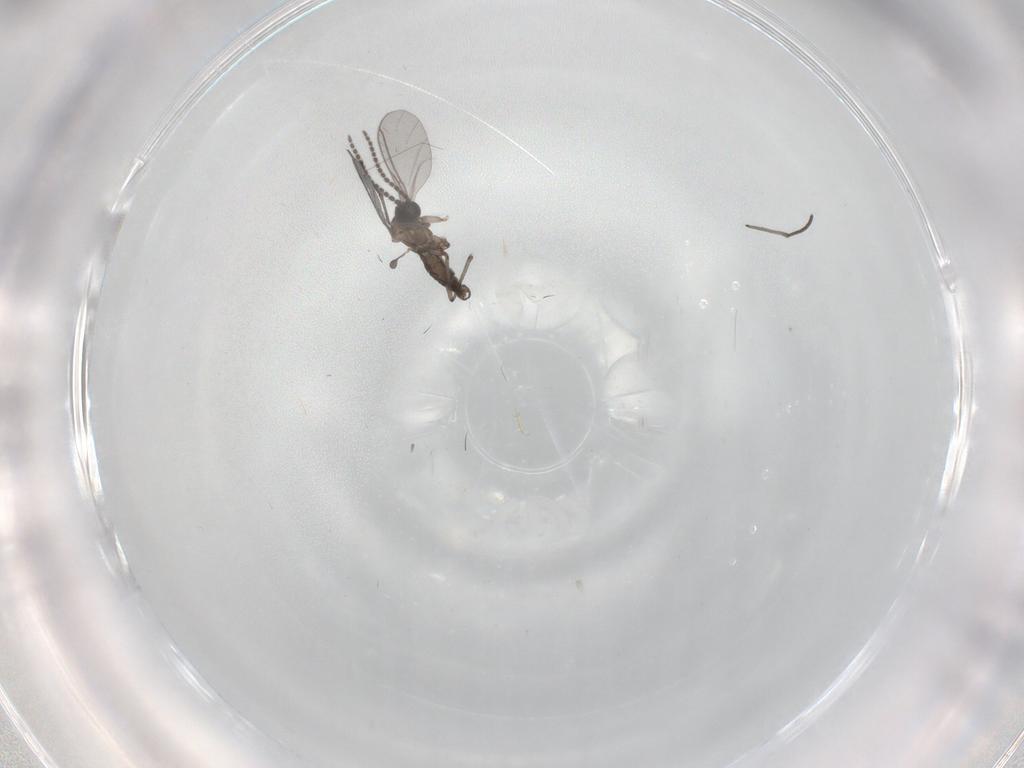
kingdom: Animalia
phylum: Arthropoda
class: Insecta
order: Diptera
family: Sciaridae
